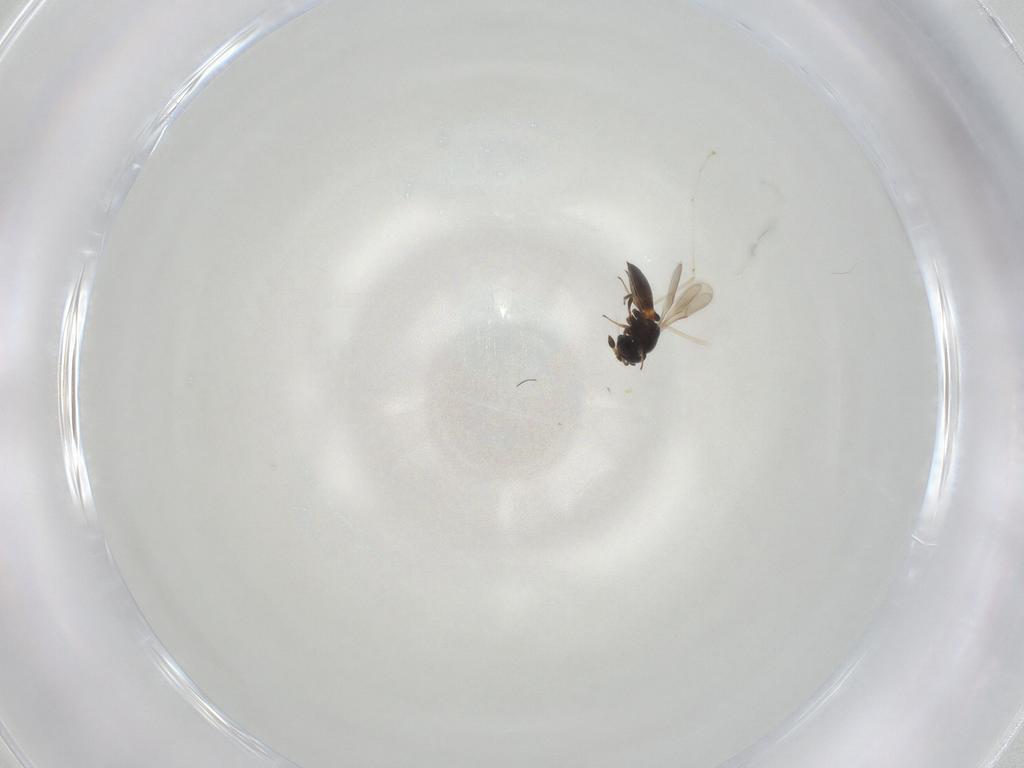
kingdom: Animalia
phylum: Arthropoda
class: Insecta
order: Hymenoptera
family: Scelionidae
